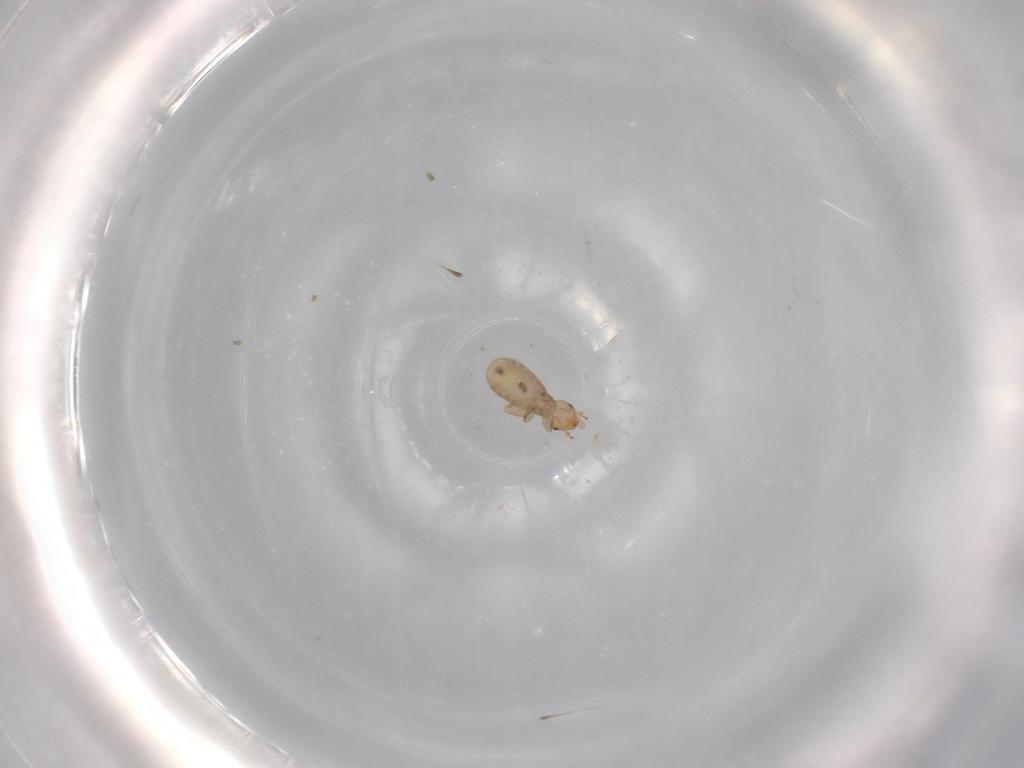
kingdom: Animalia
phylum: Arthropoda
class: Insecta
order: Psocodea
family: Liposcelididae
